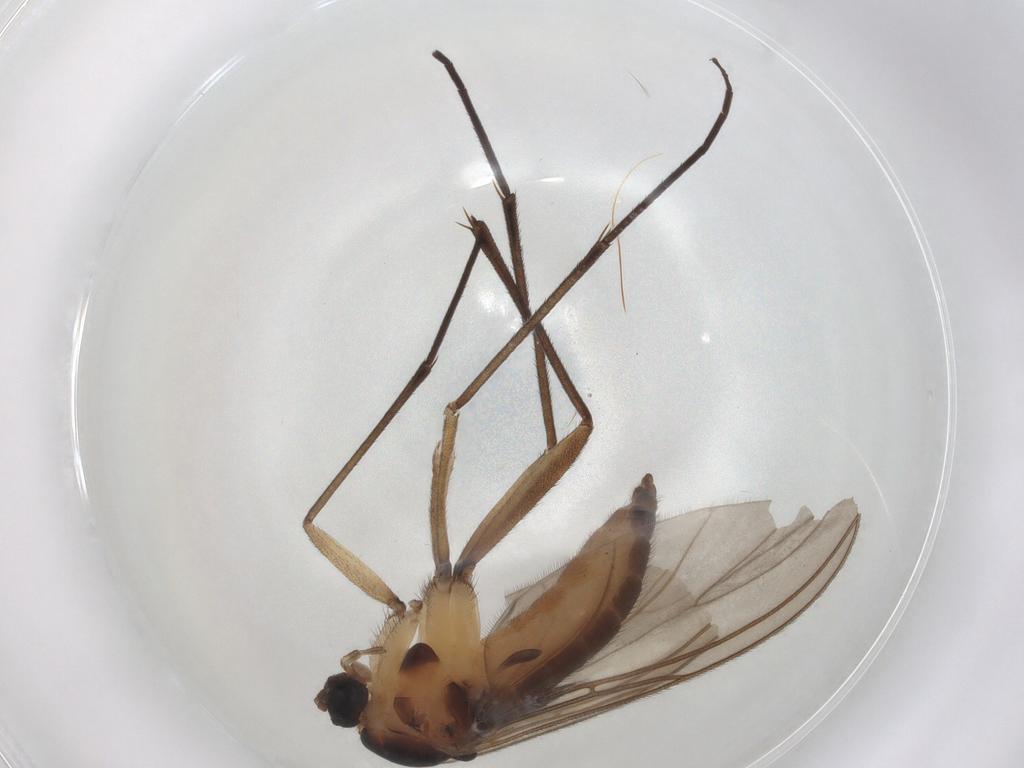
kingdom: Animalia
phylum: Arthropoda
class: Insecta
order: Diptera
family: Sciaridae
